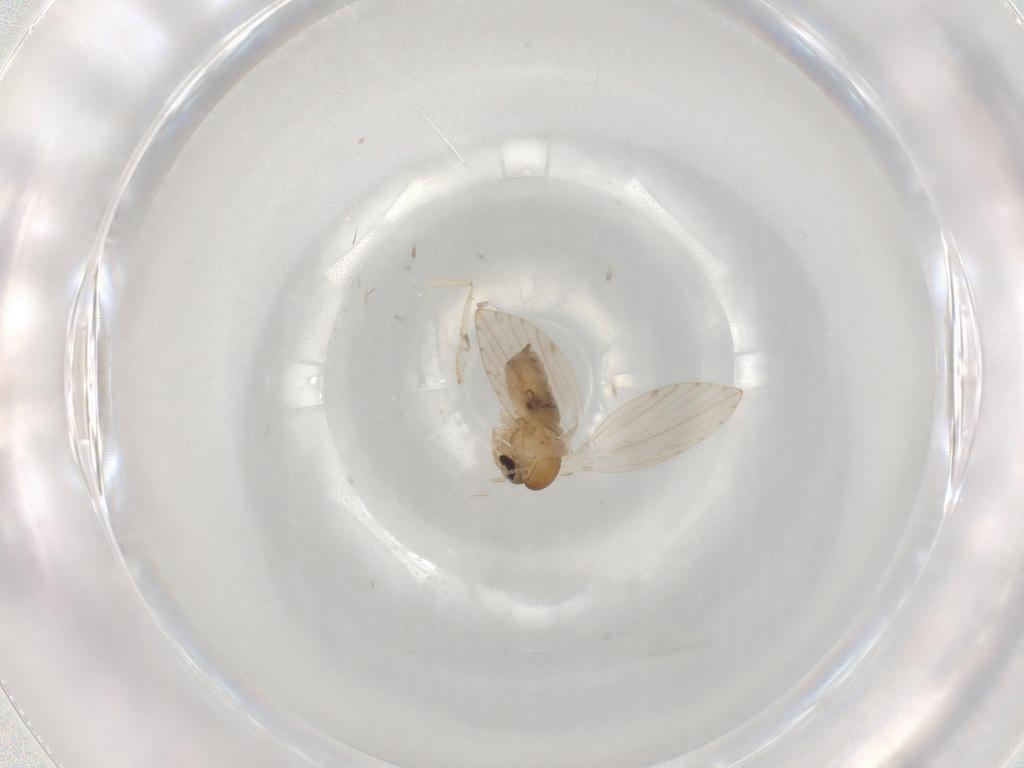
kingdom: Animalia
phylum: Arthropoda
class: Insecta
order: Diptera
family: Psychodidae
